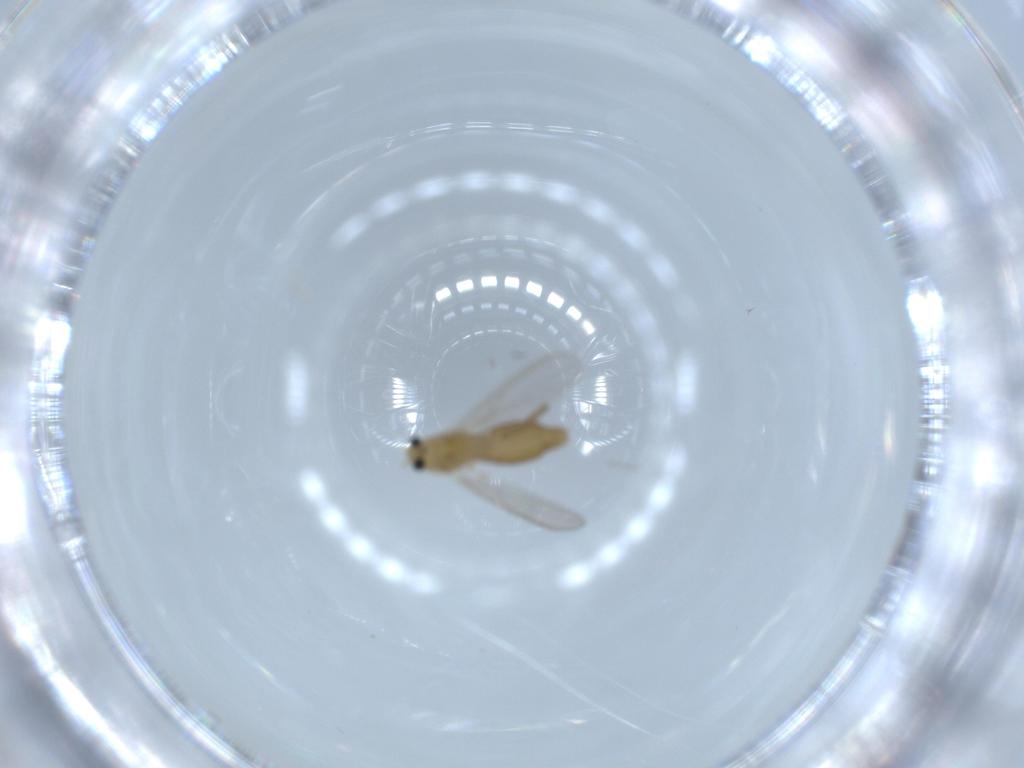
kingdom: Animalia
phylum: Arthropoda
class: Insecta
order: Diptera
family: Chironomidae
